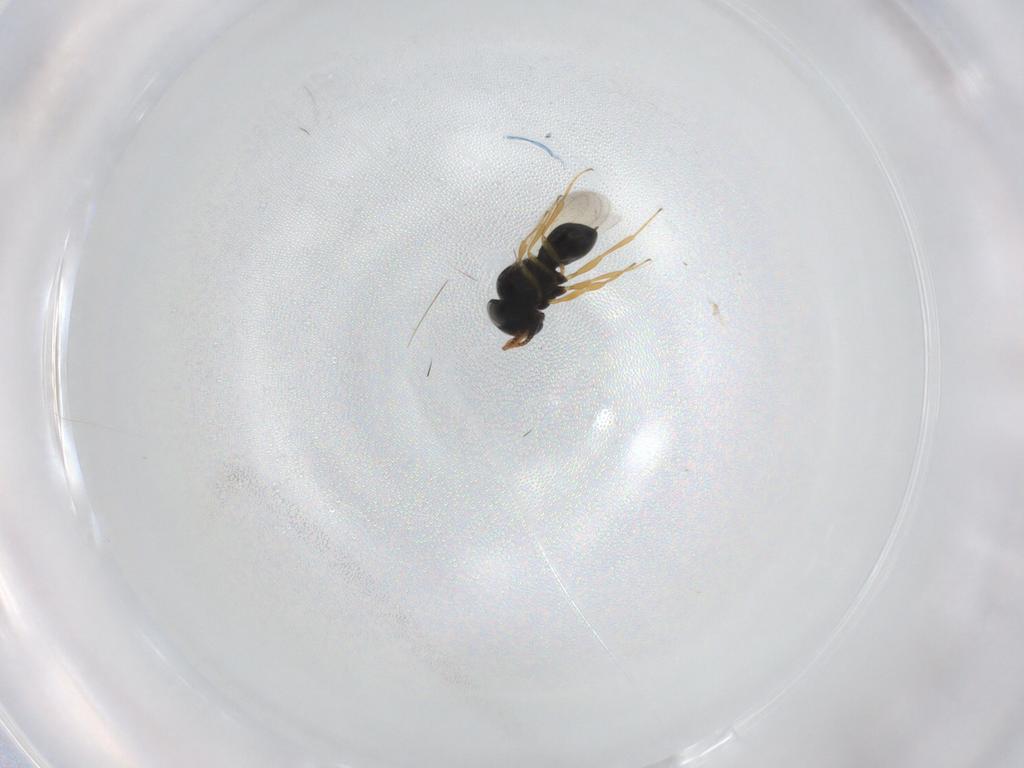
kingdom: Animalia
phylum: Arthropoda
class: Insecta
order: Hymenoptera
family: Scelionidae
